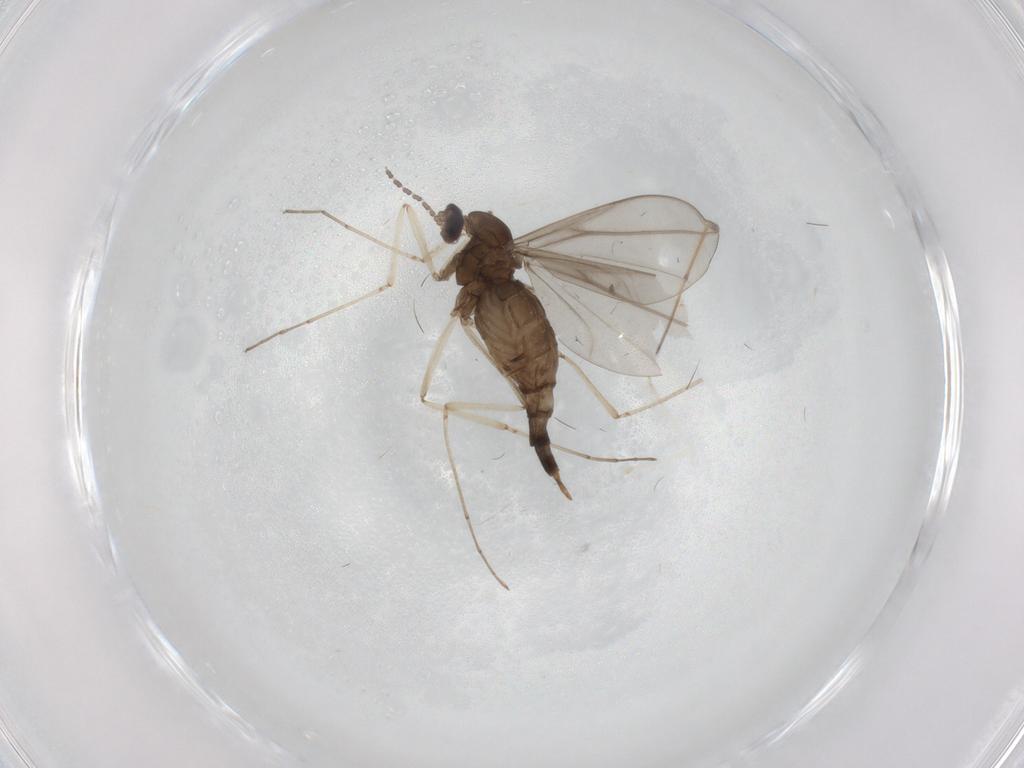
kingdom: Animalia
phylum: Arthropoda
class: Insecta
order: Diptera
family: Cecidomyiidae
